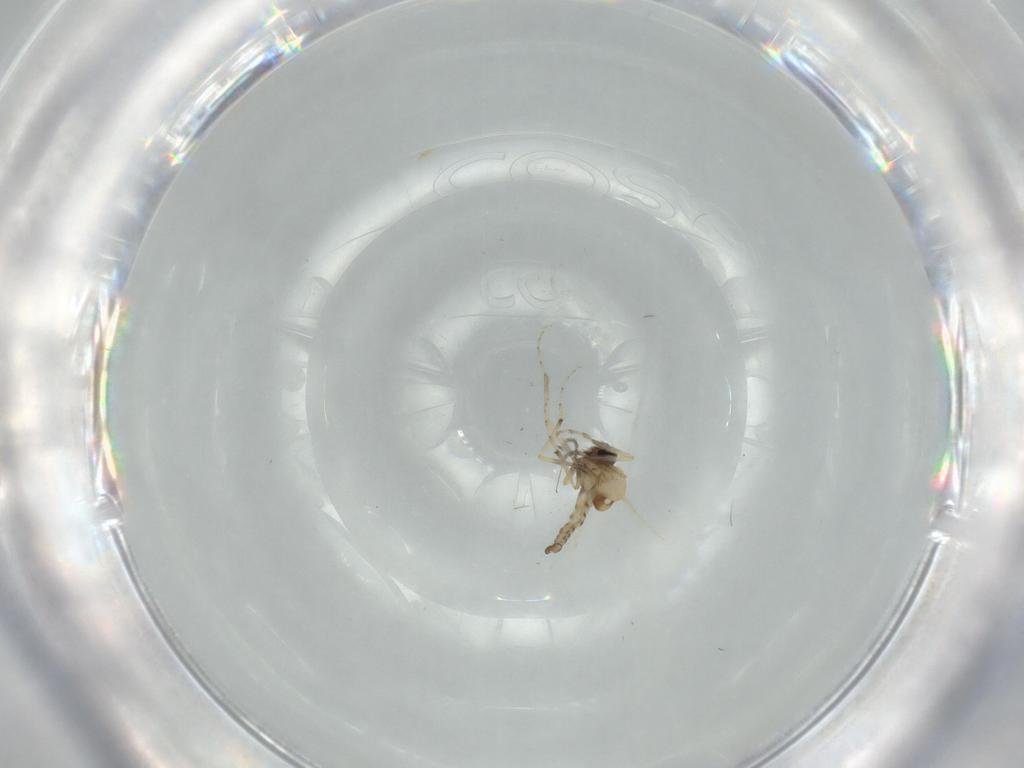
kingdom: Animalia
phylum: Arthropoda
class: Insecta
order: Diptera
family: Ceratopogonidae
